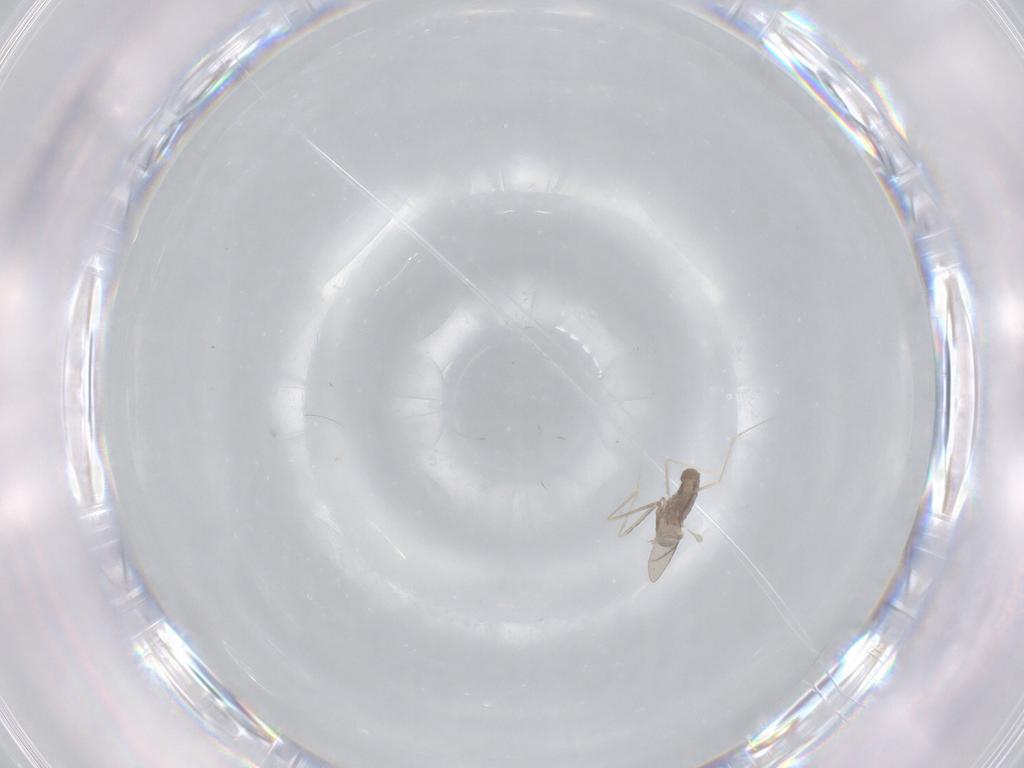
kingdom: Animalia
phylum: Arthropoda
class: Insecta
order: Diptera
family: Cecidomyiidae
